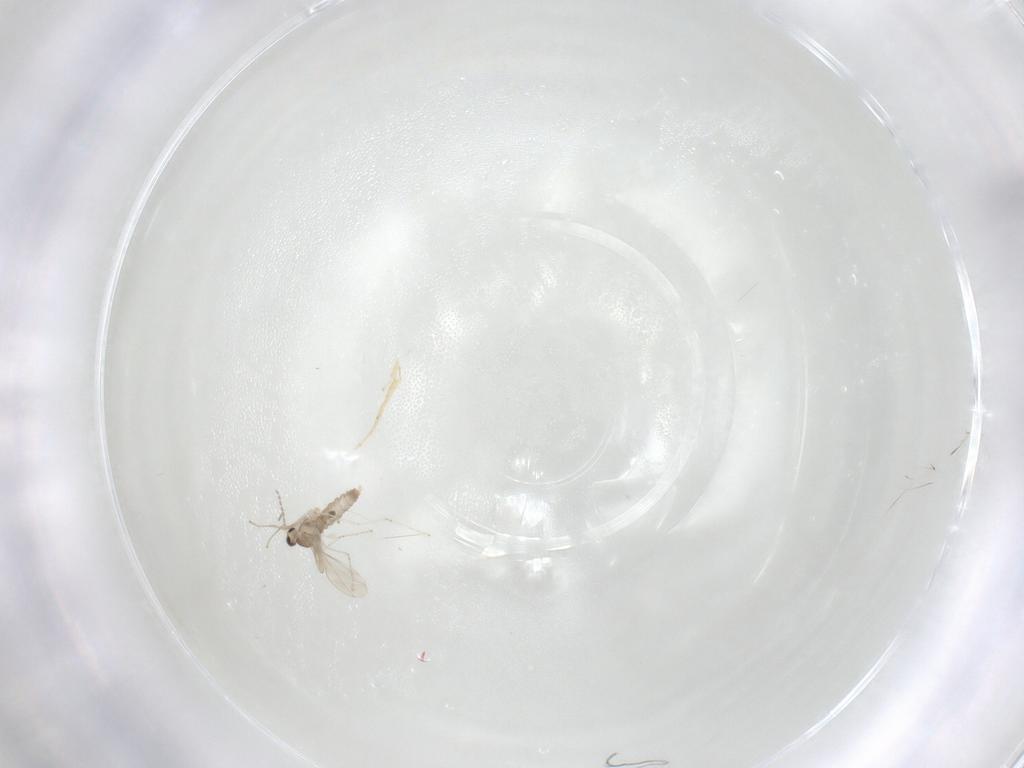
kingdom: Animalia
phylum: Arthropoda
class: Insecta
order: Diptera
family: Cecidomyiidae
